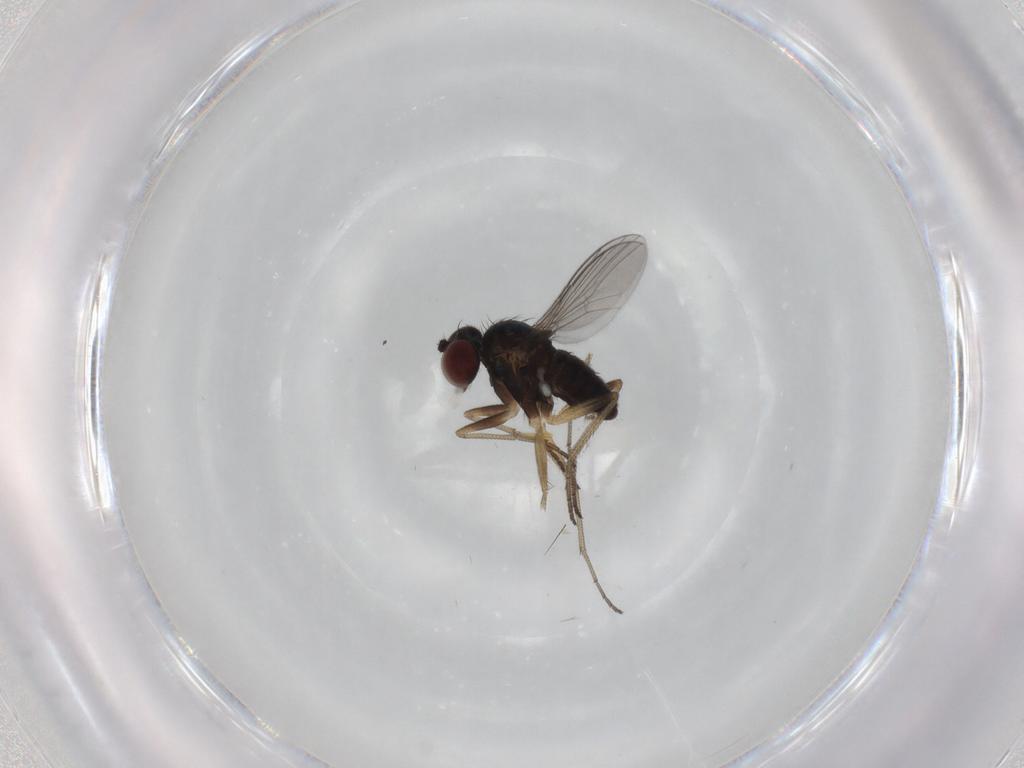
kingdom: Animalia
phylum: Arthropoda
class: Insecta
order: Diptera
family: Dolichopodidae
